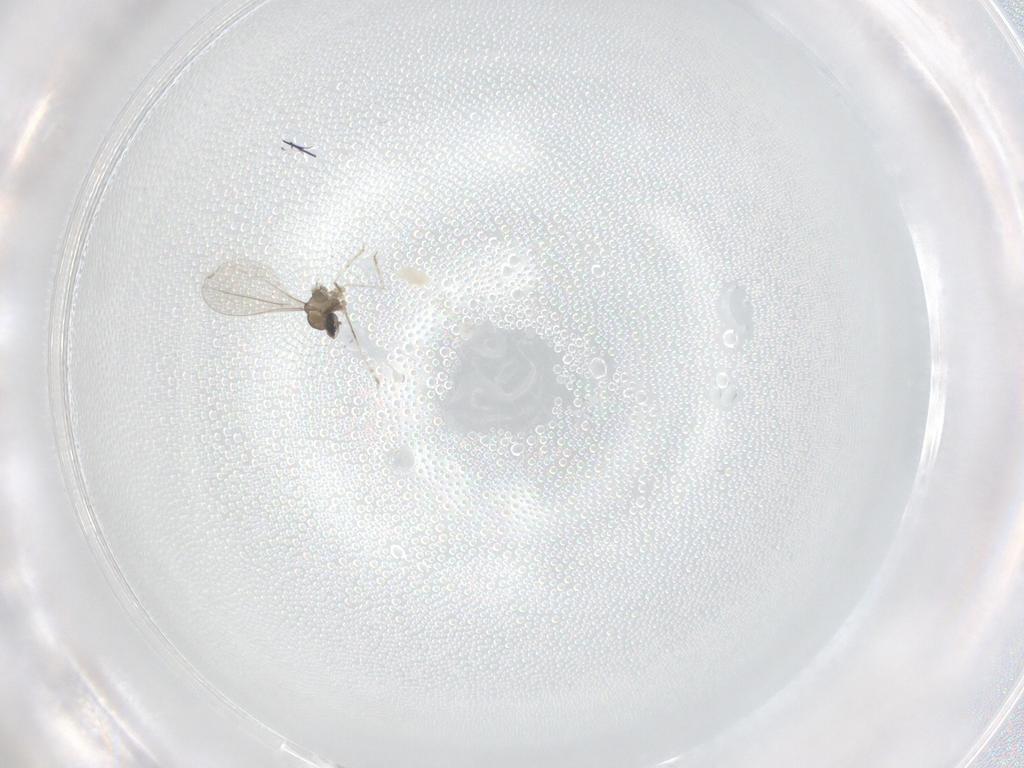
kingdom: Animalia
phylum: Arthropoda
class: Insecta
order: Diptera
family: Cecidomyiidae
